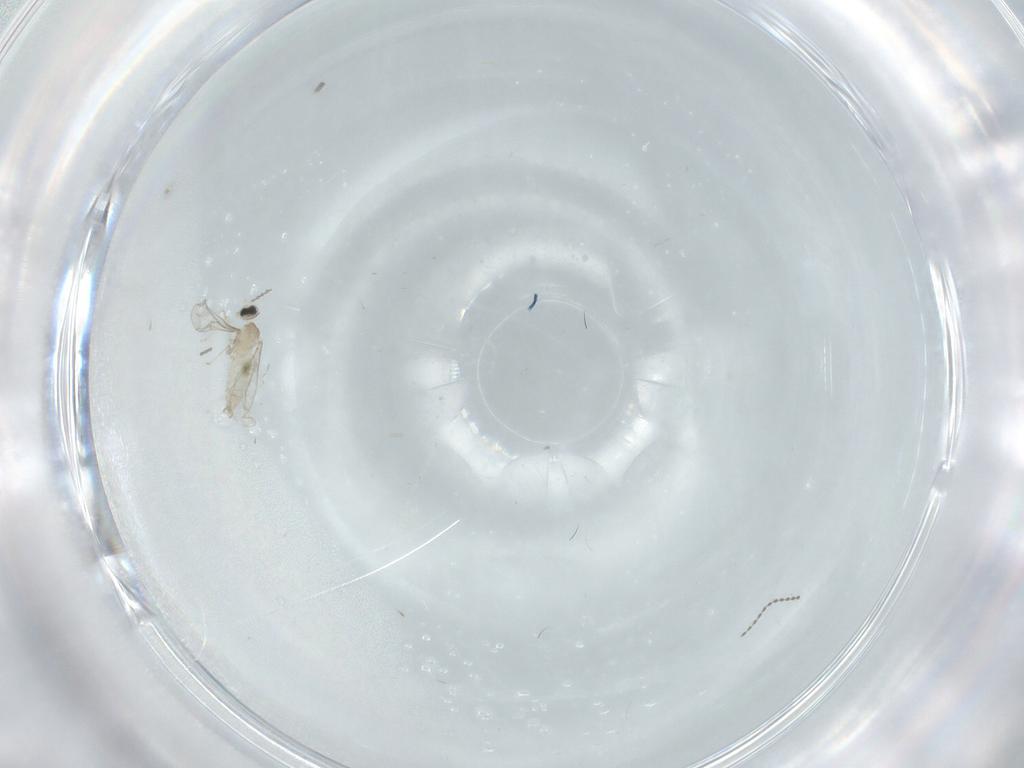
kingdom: Animalia
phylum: Arthropoda
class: Insecta
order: Diptera
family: Cecidomyiidae
